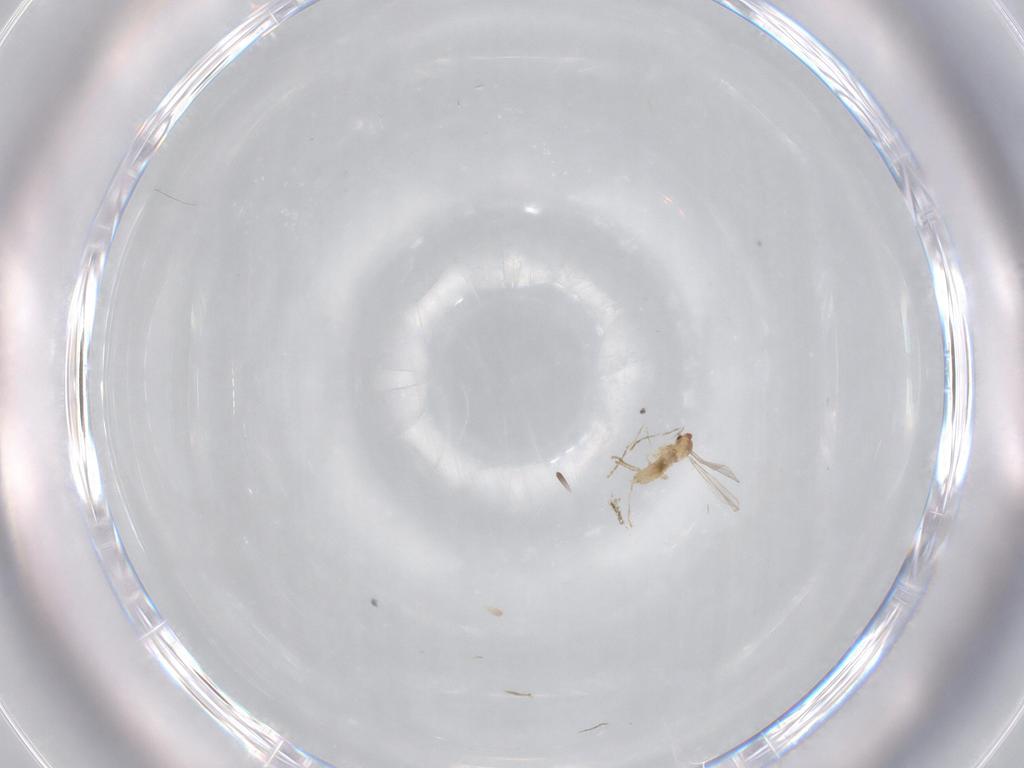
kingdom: Animalia
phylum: Arthropoda
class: Insecta
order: Diptera
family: Cecidomyiidae
